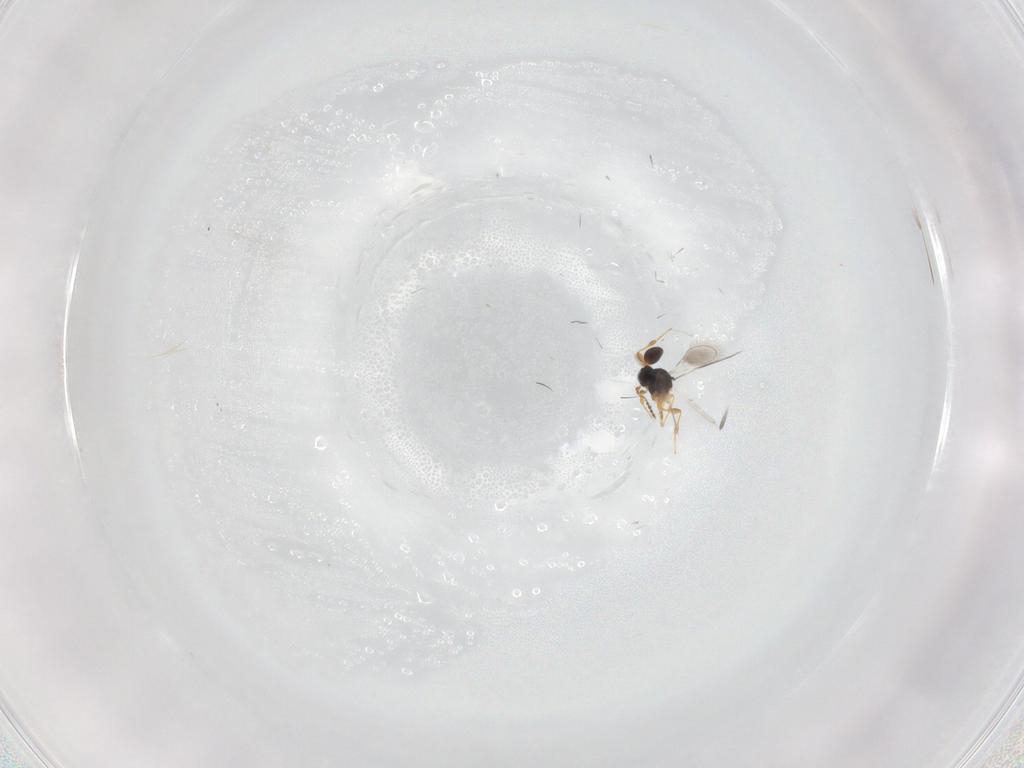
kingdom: Animalia
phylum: Arthropoda
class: Insecta
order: Hymenoptera
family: Platygastridae
